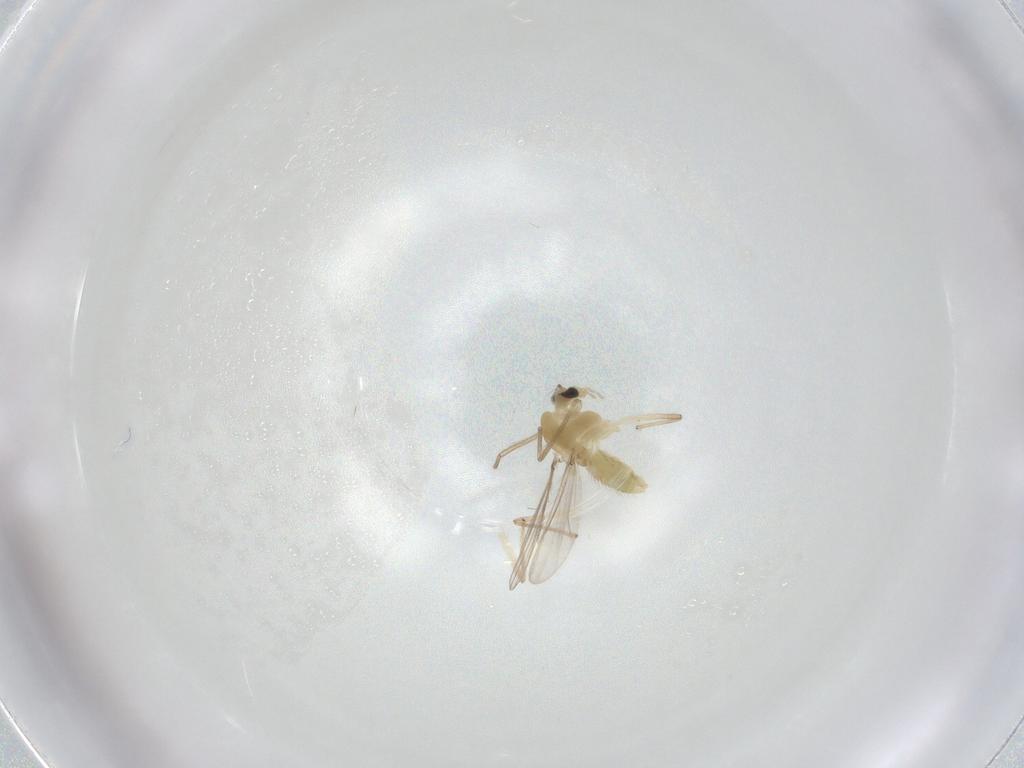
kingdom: Animalia
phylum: Arthropoda
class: Insecta
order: Diptera
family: Chironomidae
